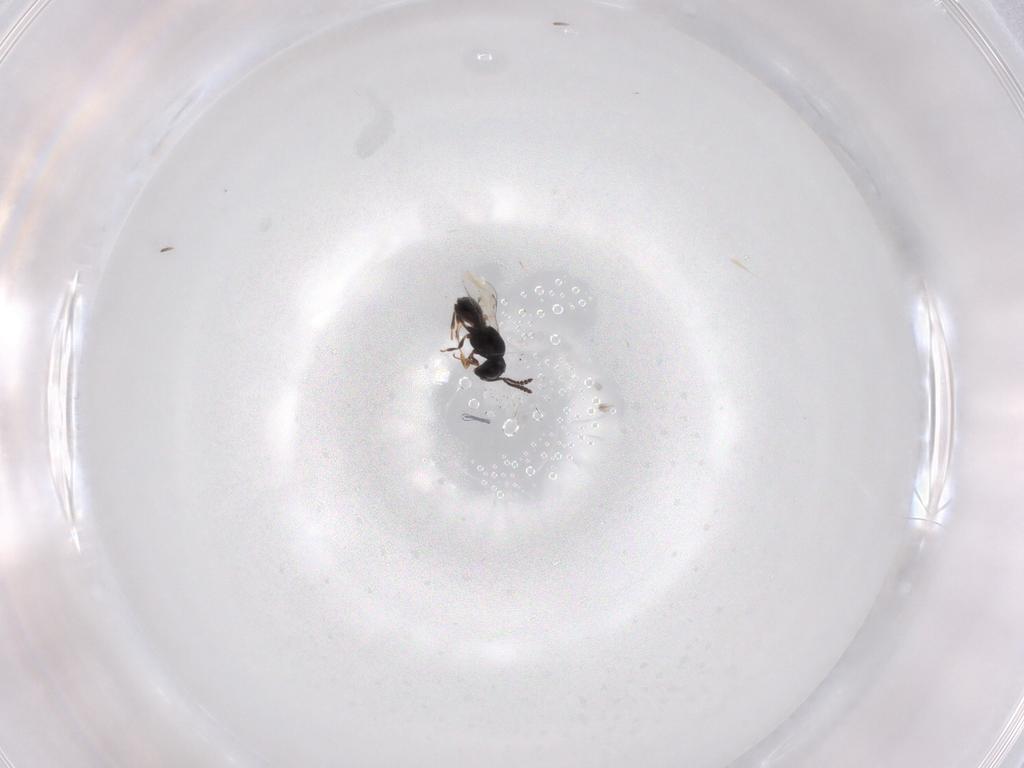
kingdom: Animalia
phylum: Arthropoda
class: Insecta
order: Hymenoptera
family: Scelionidae
